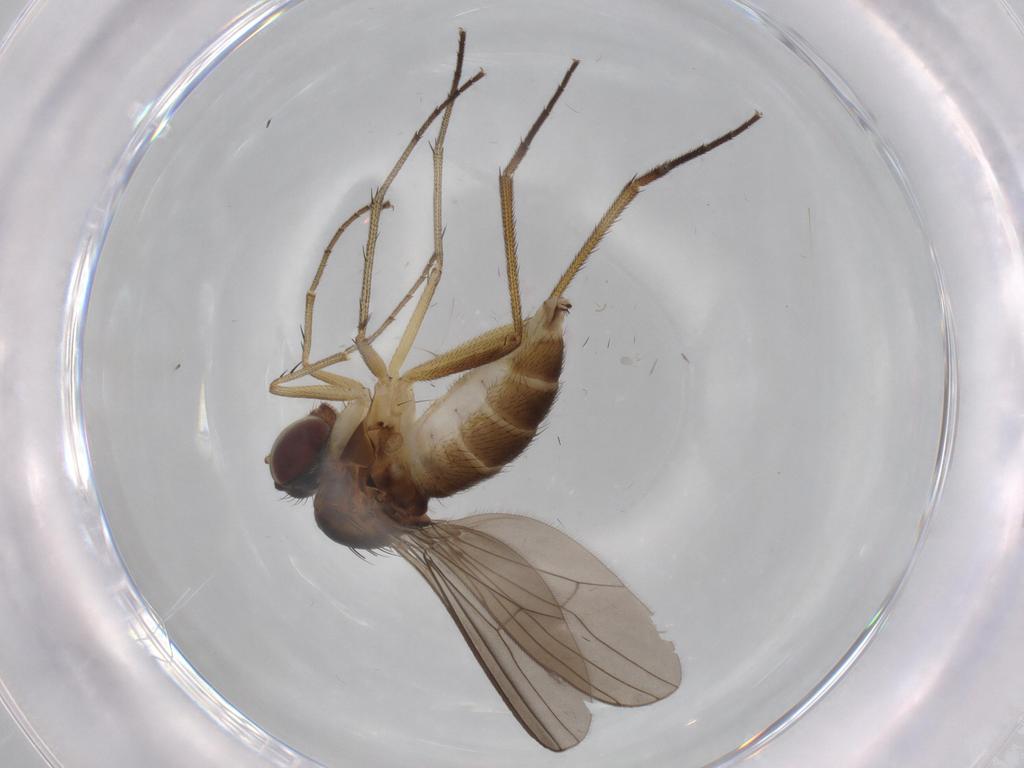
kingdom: Animalia
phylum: Arthropoda
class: Insecta
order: Diptera
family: Dolichopodidae
